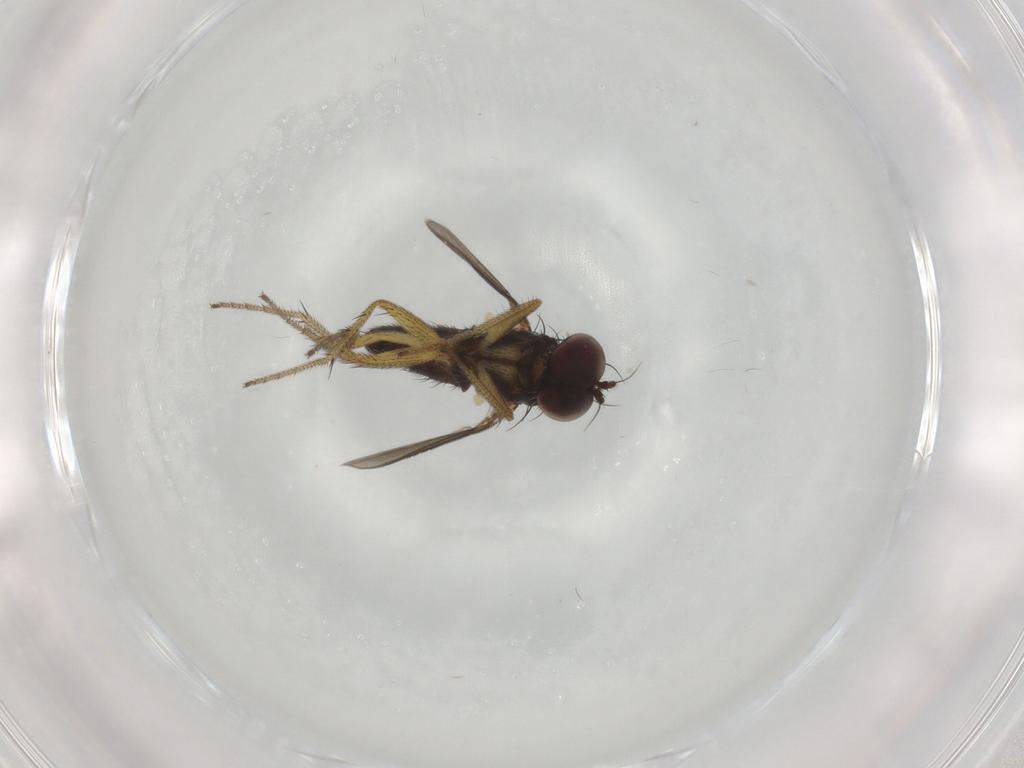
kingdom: Animalia
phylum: Arthropoda
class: Insecta
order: Diptera
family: Dolichopodidae
